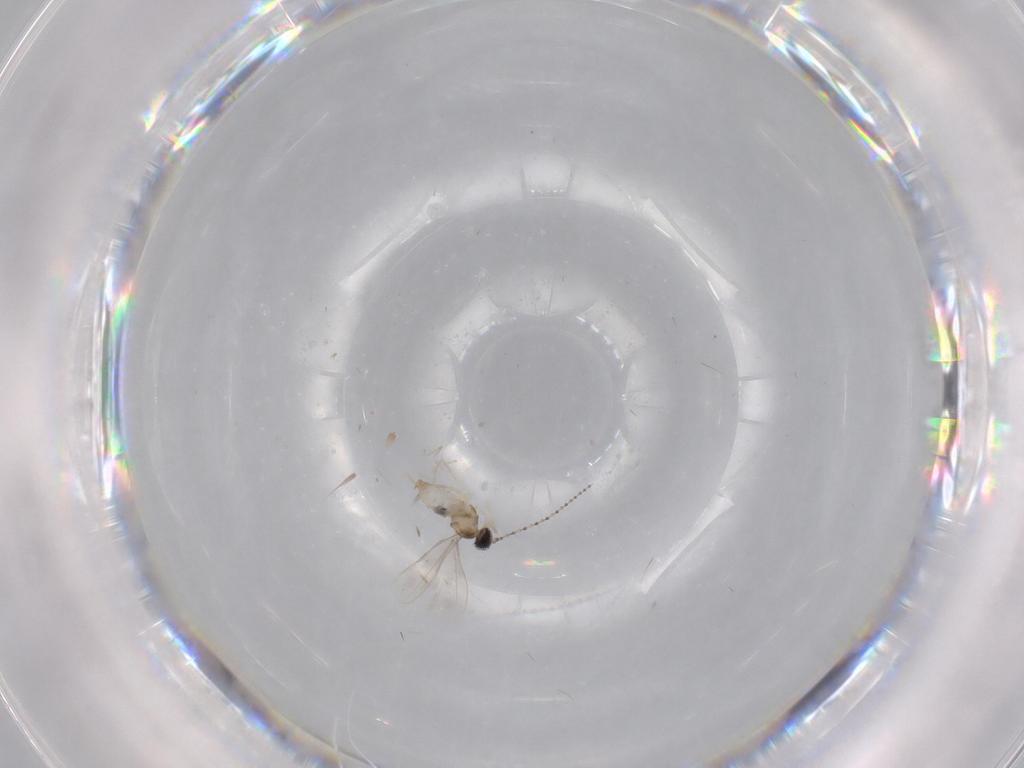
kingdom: Animalia
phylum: Arthropoda
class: Insecta
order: Diptera
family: Cecidomyiidae
